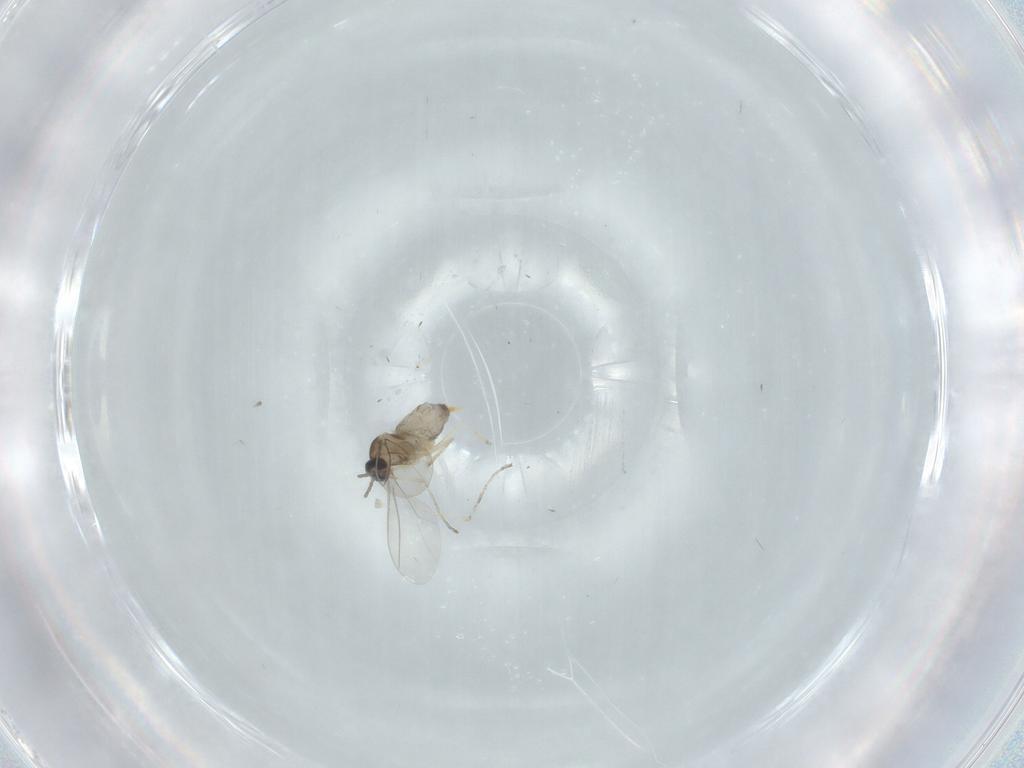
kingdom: Animalia
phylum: Arthropoda
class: Insecta
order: Diptera
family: Cecidomyiidae
